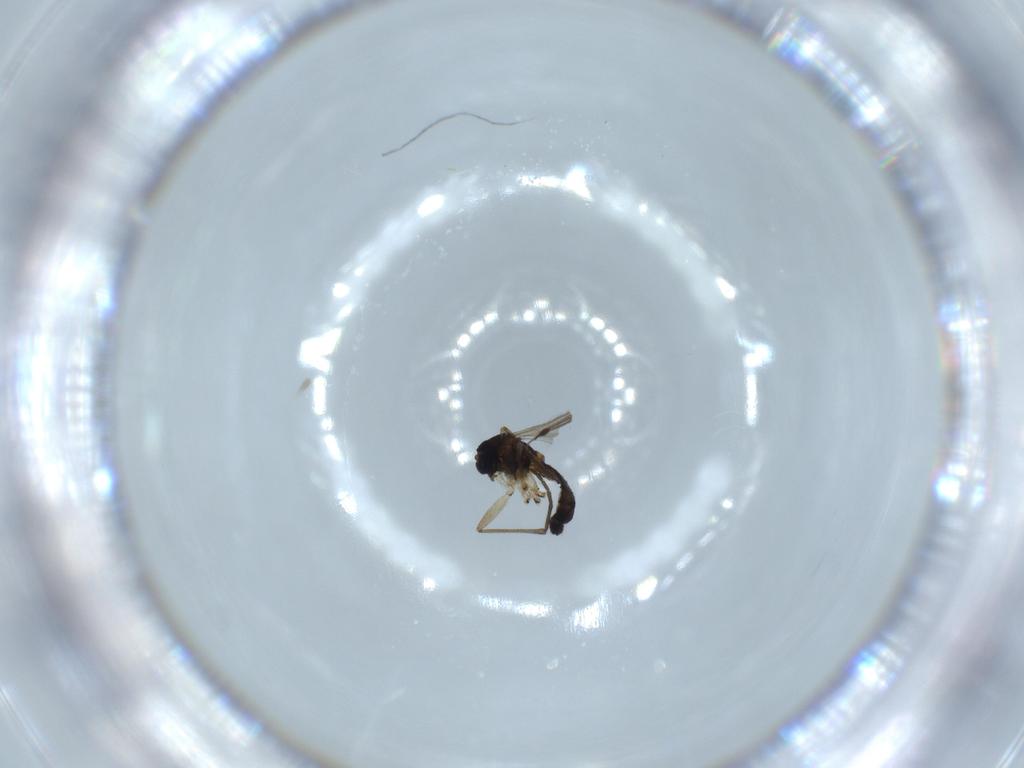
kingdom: Animalia
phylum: Arthropoda
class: Insecta
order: Diptera
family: Sciaridae
